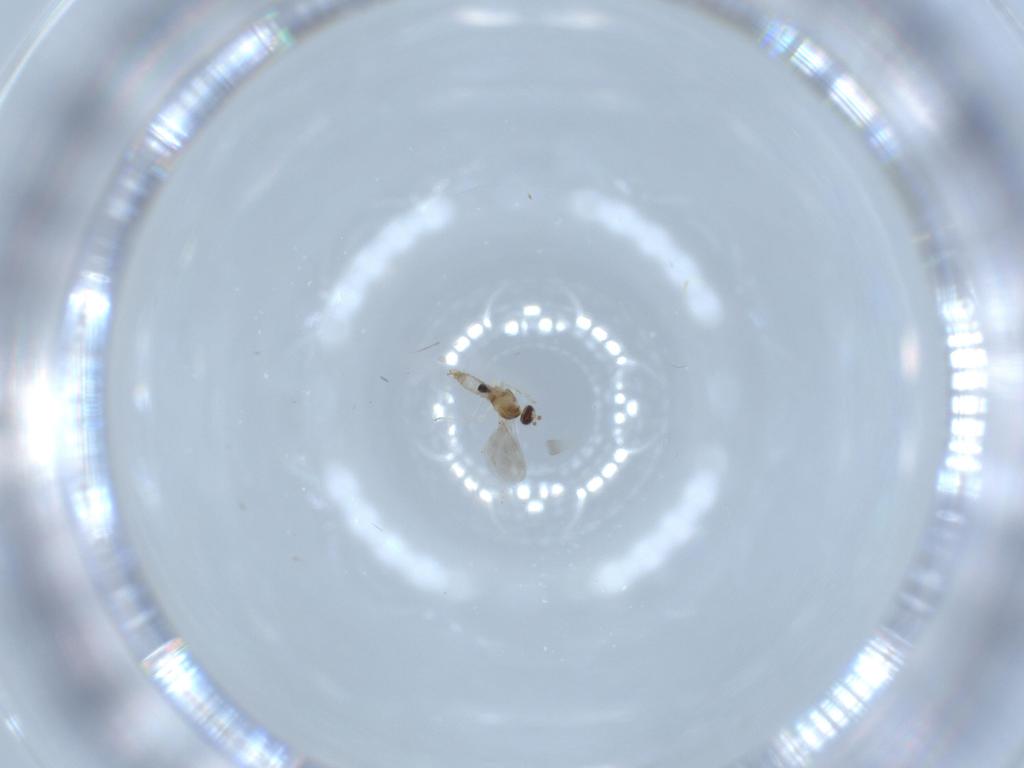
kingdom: Animalia
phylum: Arthropoda
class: Insecta
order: Diptera
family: Cecidomyiidae
